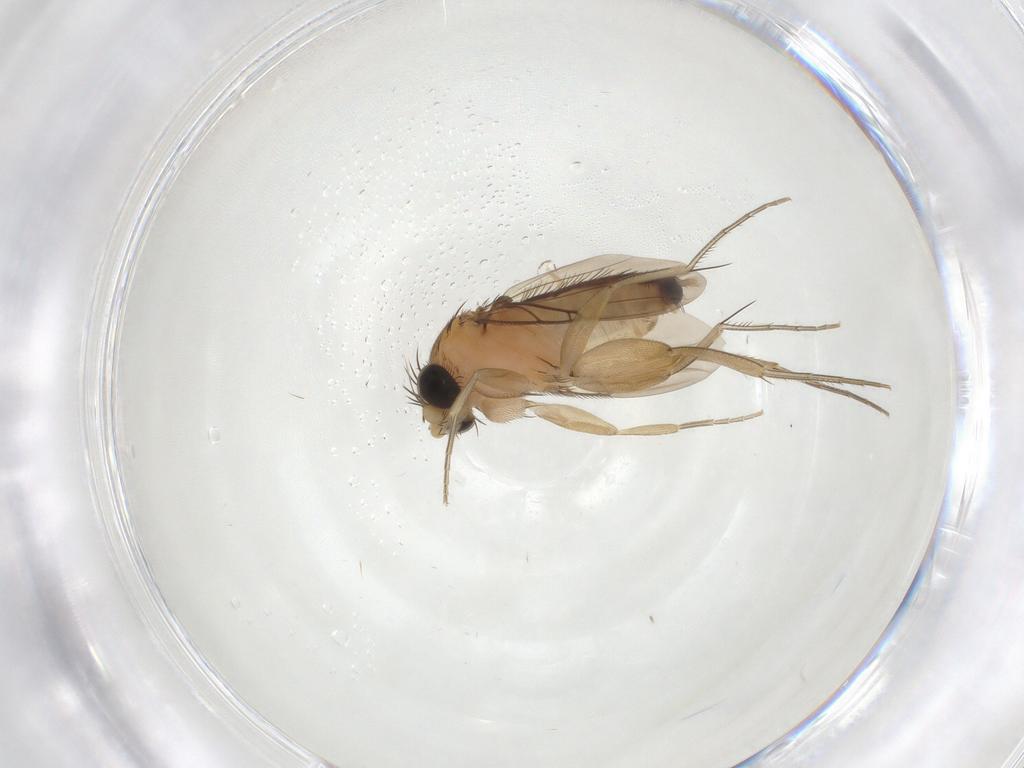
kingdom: Animalia
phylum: Arthropoda
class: Insecta
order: Diptera
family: Phoridae
